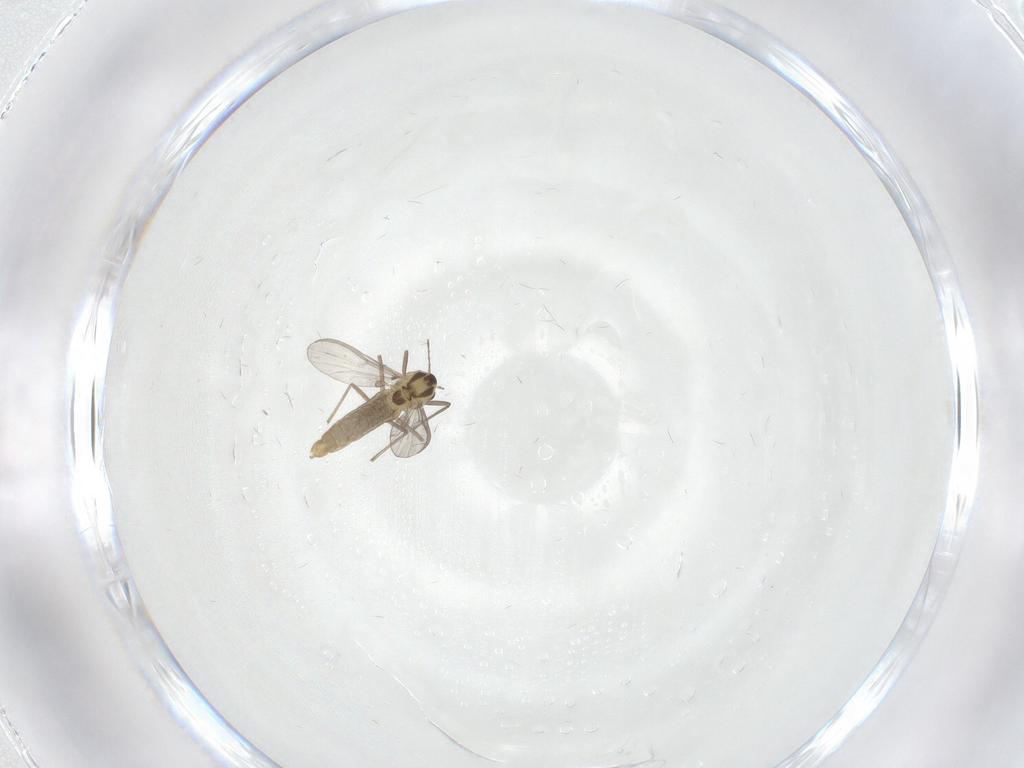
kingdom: Animalia
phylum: Arthropoda
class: Insecta
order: Diptera
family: Chironomidae
